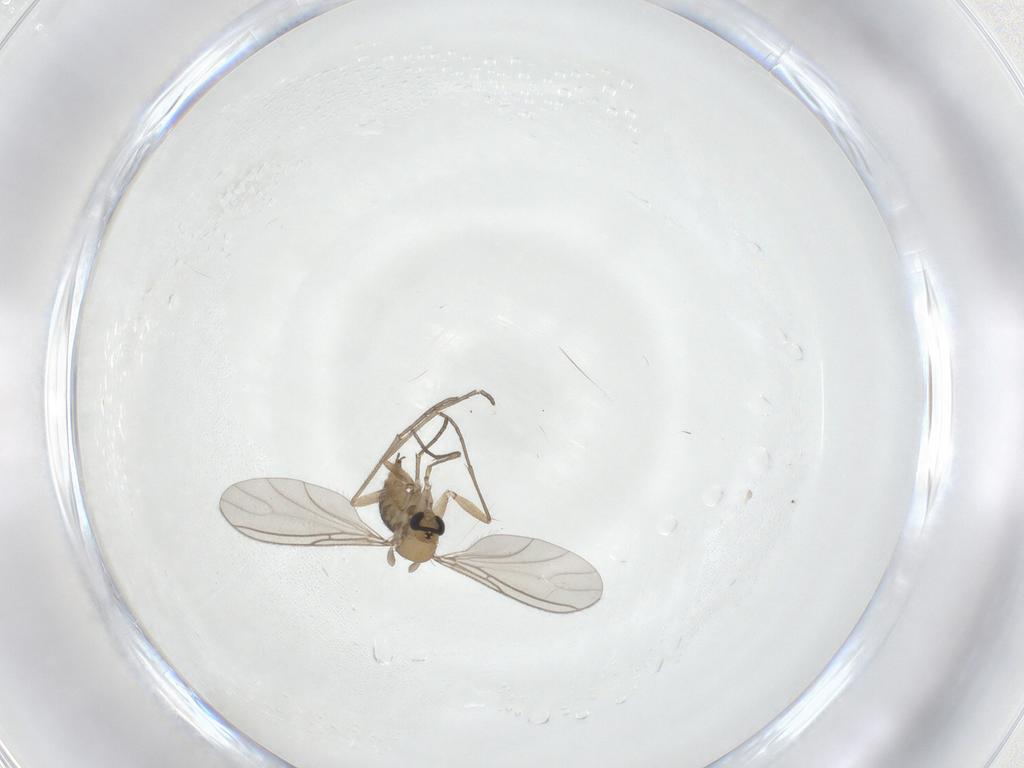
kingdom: Animalia
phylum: Arthropoda
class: Insecta
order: Diptera
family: Sciaridae
